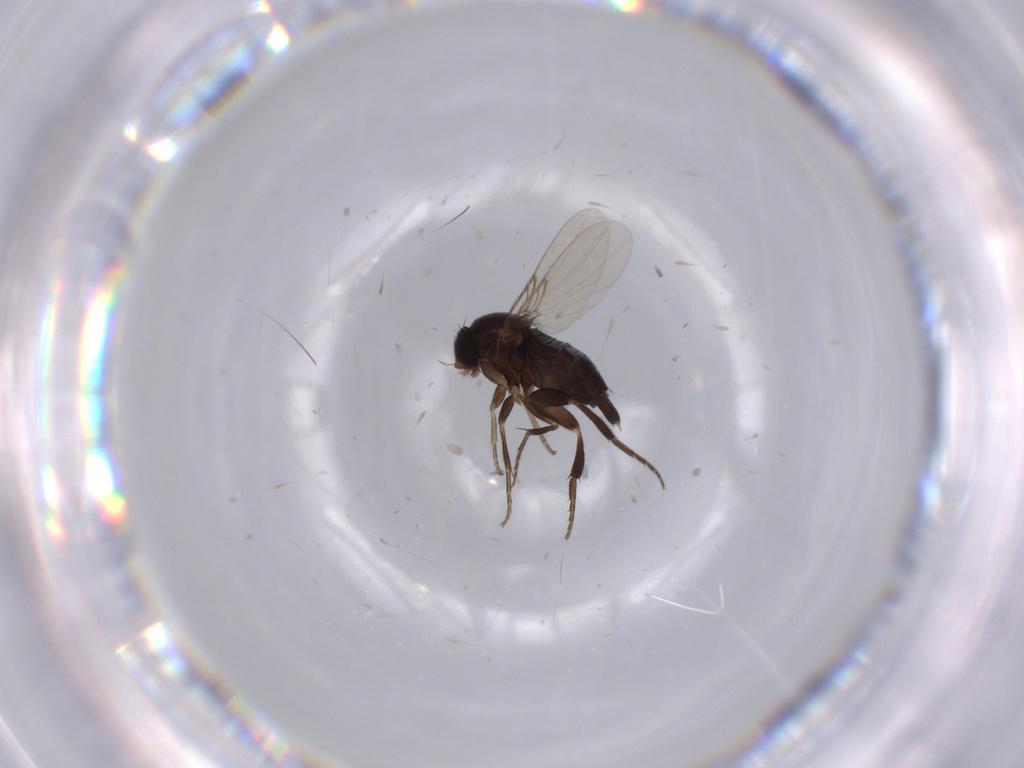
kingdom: Animalia
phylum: Arthropoda
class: Insecta
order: Diptera
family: Phoridae
